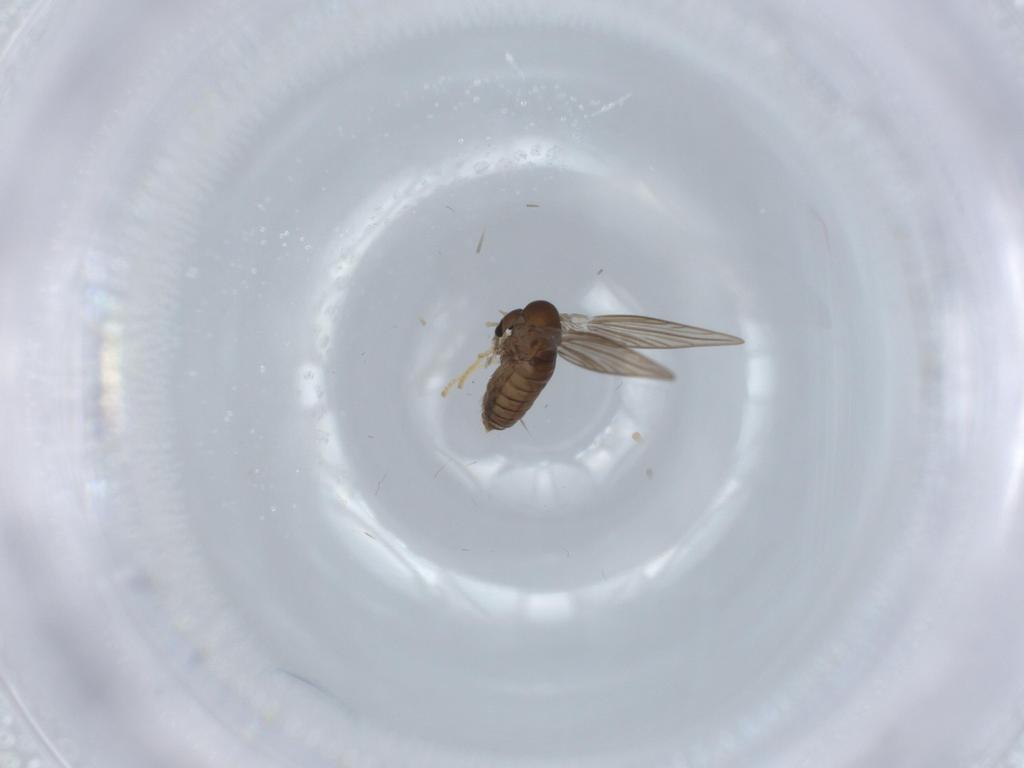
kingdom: Animalia
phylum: Arthropoda
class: Insecta
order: Diptera
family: Psychodidae
